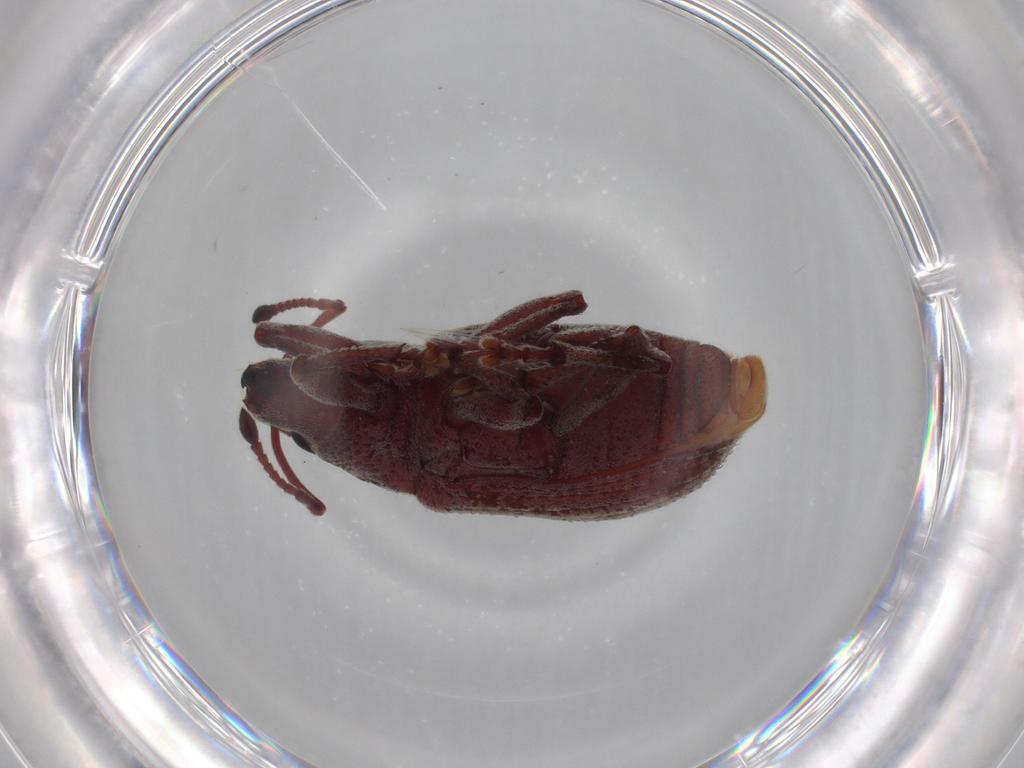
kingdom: Animalia
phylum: Arthropoda
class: Insecta
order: Coleoptera
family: Curculionidae
